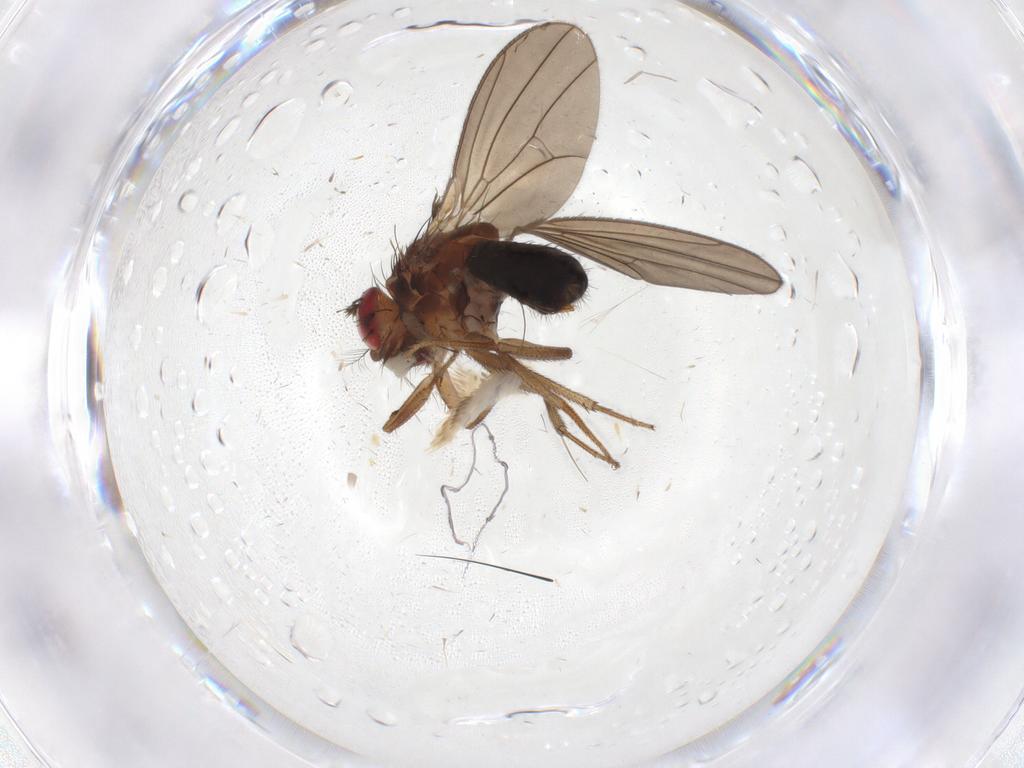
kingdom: Animalia
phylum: Arthropoda
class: Insecta
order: Diptera
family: Drosophilidae
